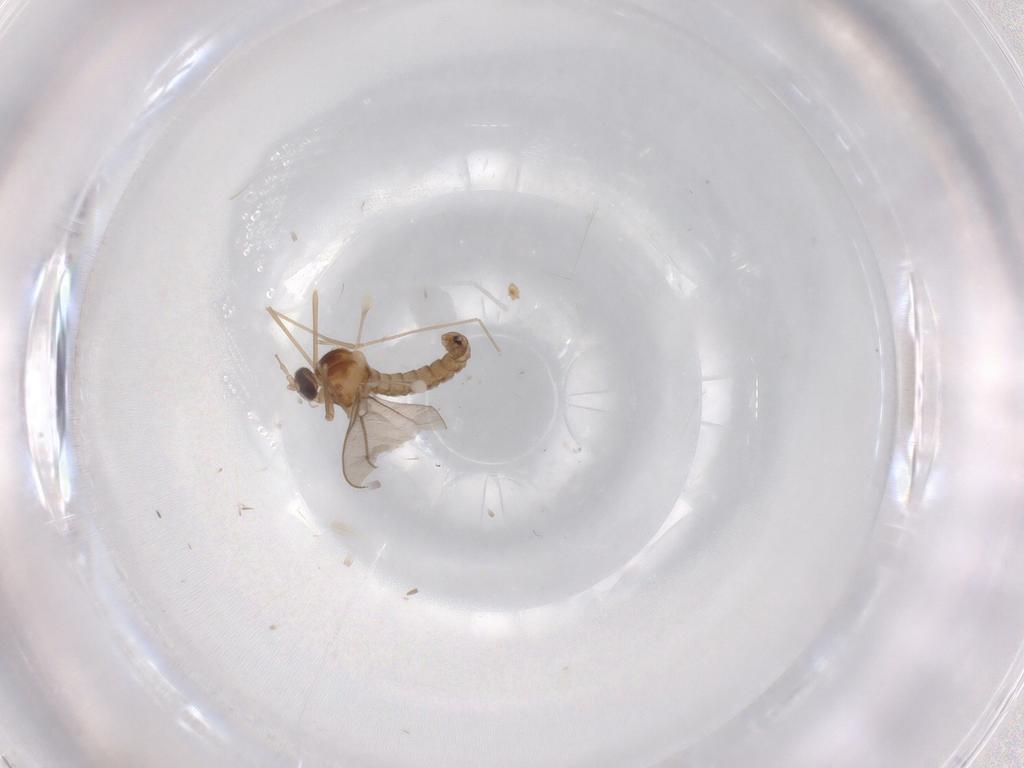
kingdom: Animalia
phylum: Arthropoda
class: Insecta
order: Diptera
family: Cecidomyiidae
